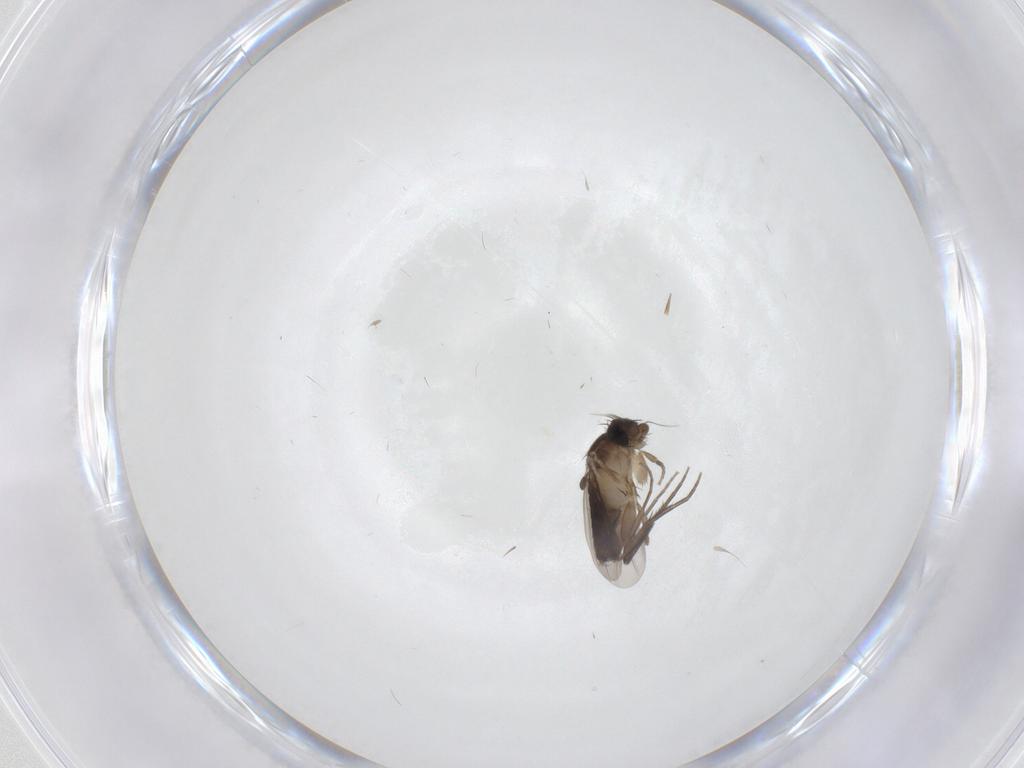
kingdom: Animalia
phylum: Arthropoda
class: Insecta
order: Diptera
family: Phoridae
